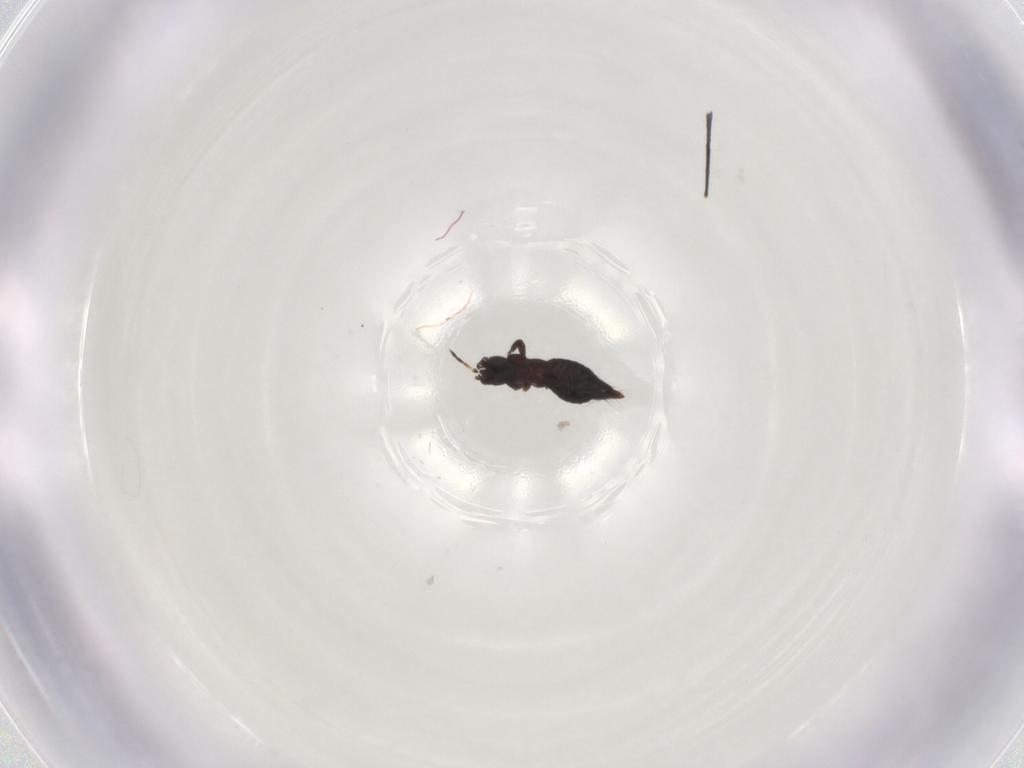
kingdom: Animalia
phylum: Arthropoda
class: Insecta
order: Thysanoptera
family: Aeolothripidae
